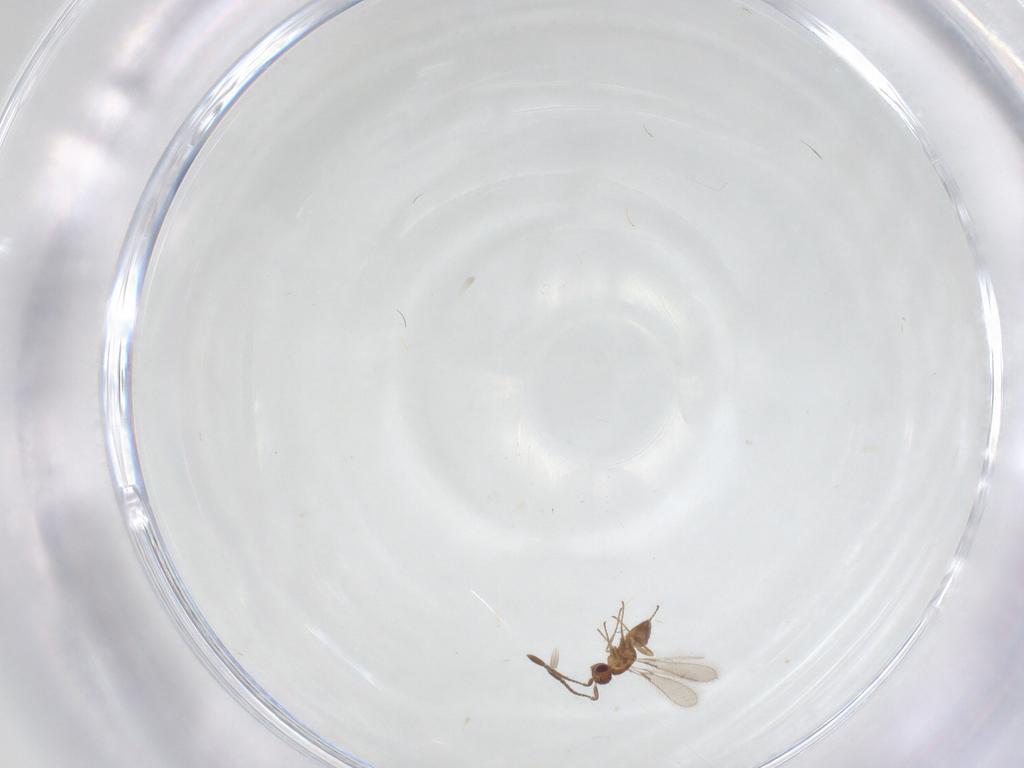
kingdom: Animalia
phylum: Arthropoda
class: Insecta
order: Hymenoptera
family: Mymaridae
